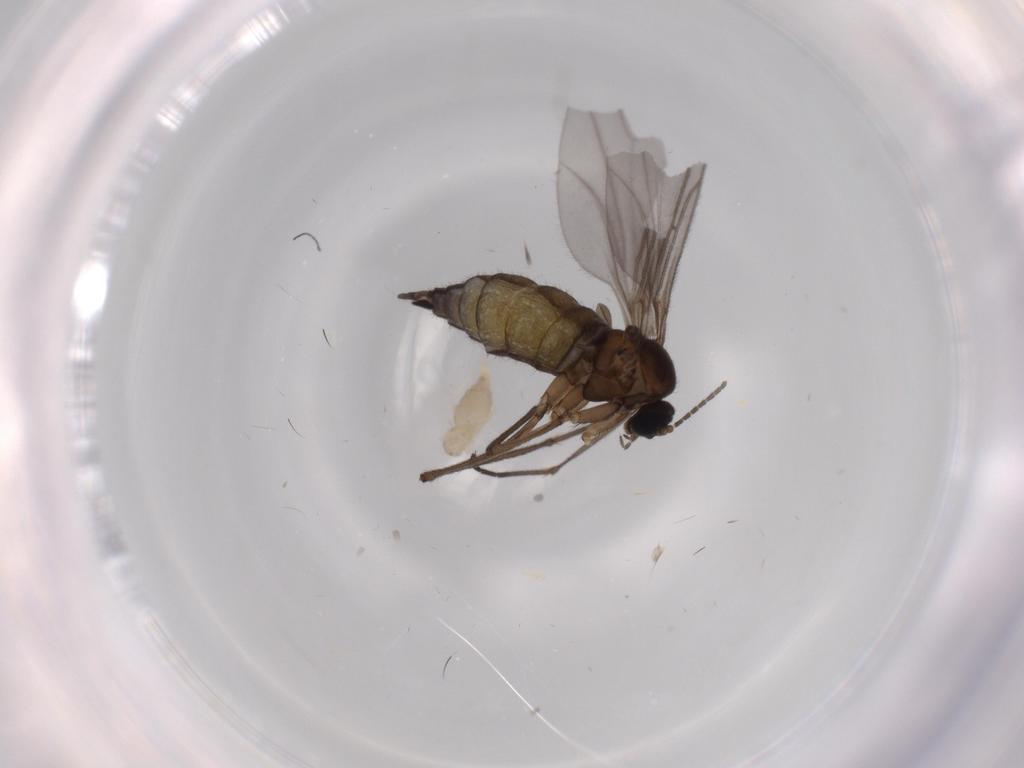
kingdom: Animalia
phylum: Arthropoda
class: Insecta
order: Diptera
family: Sciaridae
